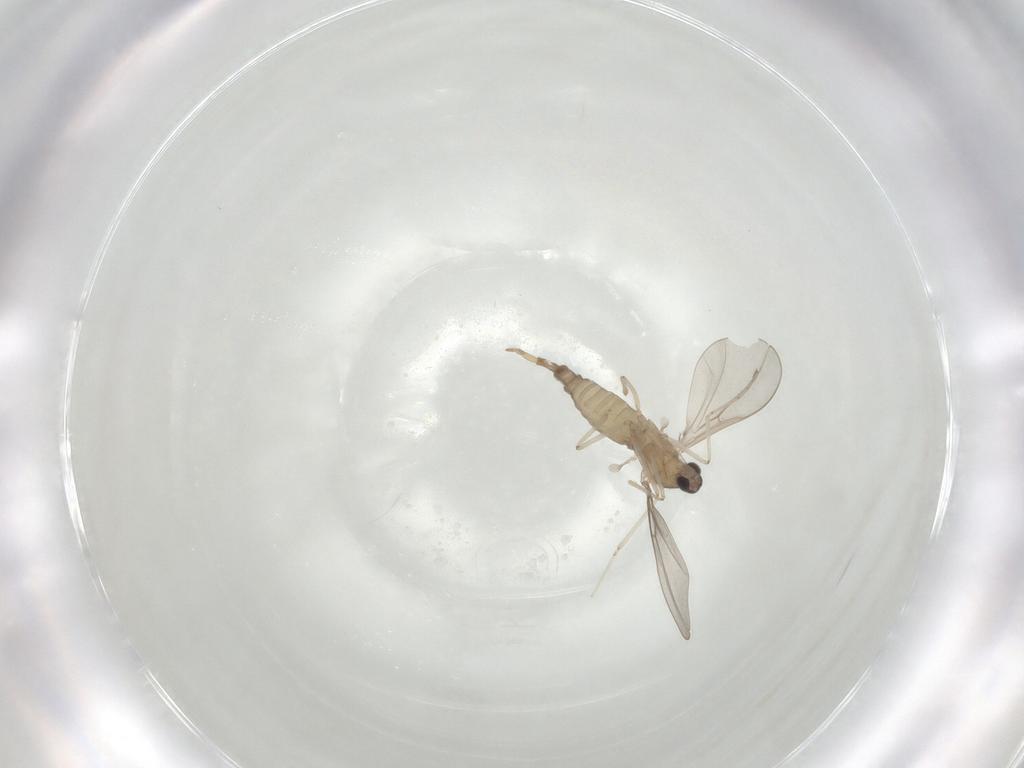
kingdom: Animalia
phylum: Arthropoda
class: Insecta
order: Diptera
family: Cecidomyiidae
